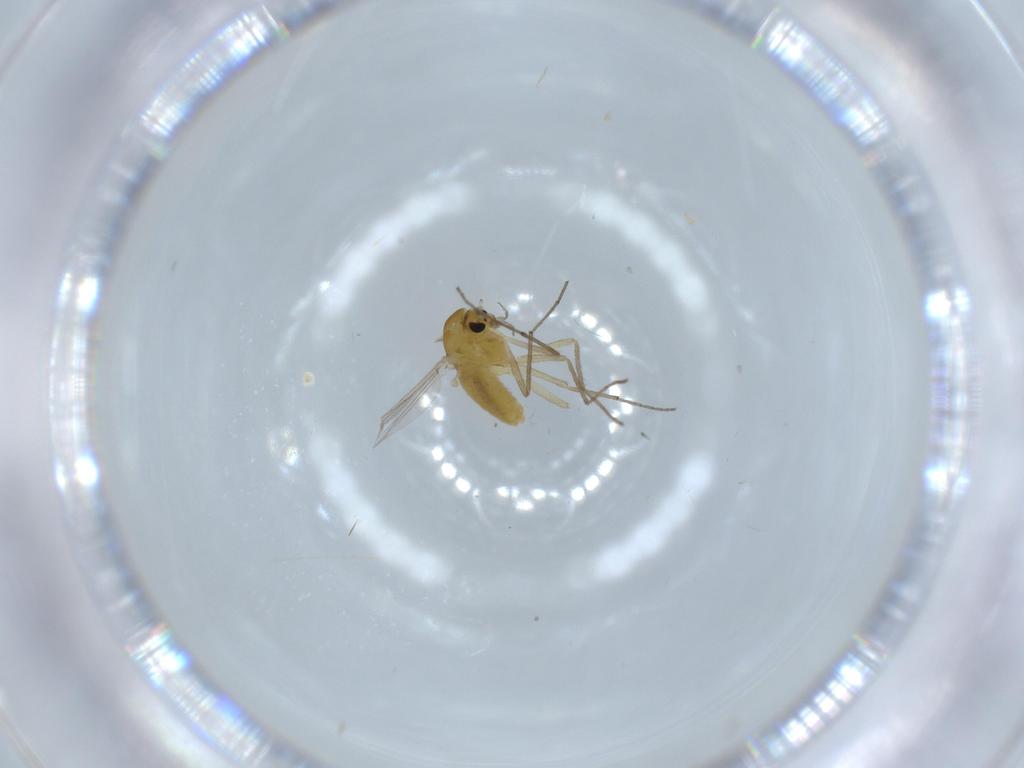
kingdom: Animalia
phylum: Arthropoda
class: Insecta
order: Diptera
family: Chironomidae
